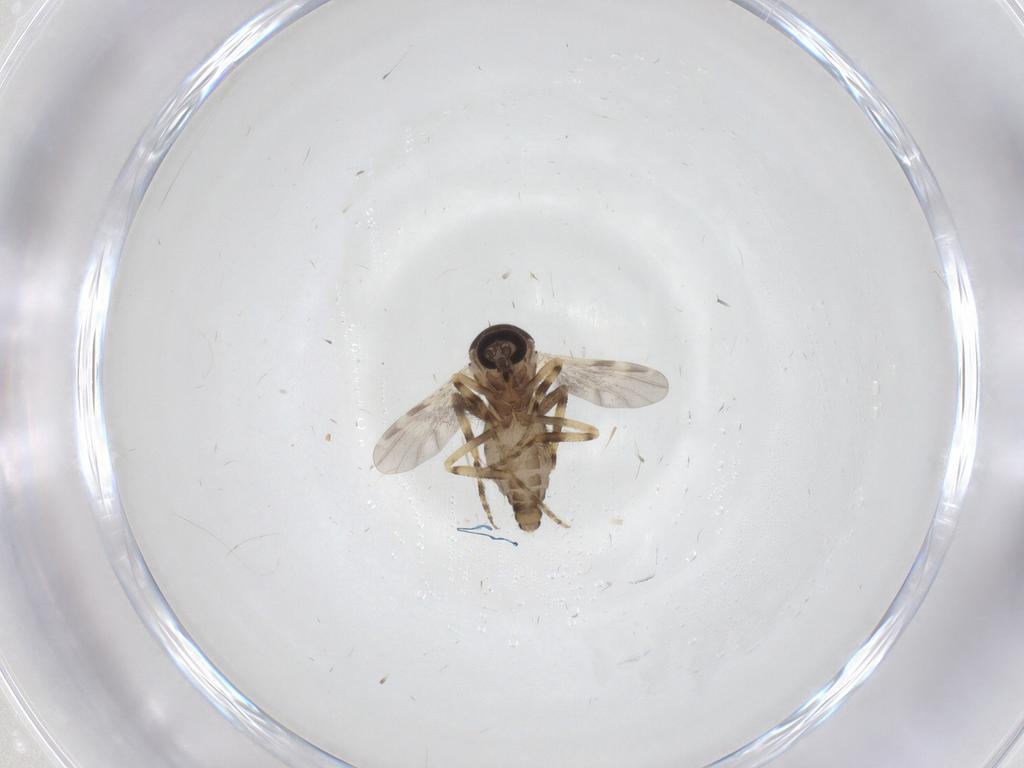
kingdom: Animalia
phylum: Arthropoda
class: Insecta
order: Diptera
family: Ceratopogonidae
